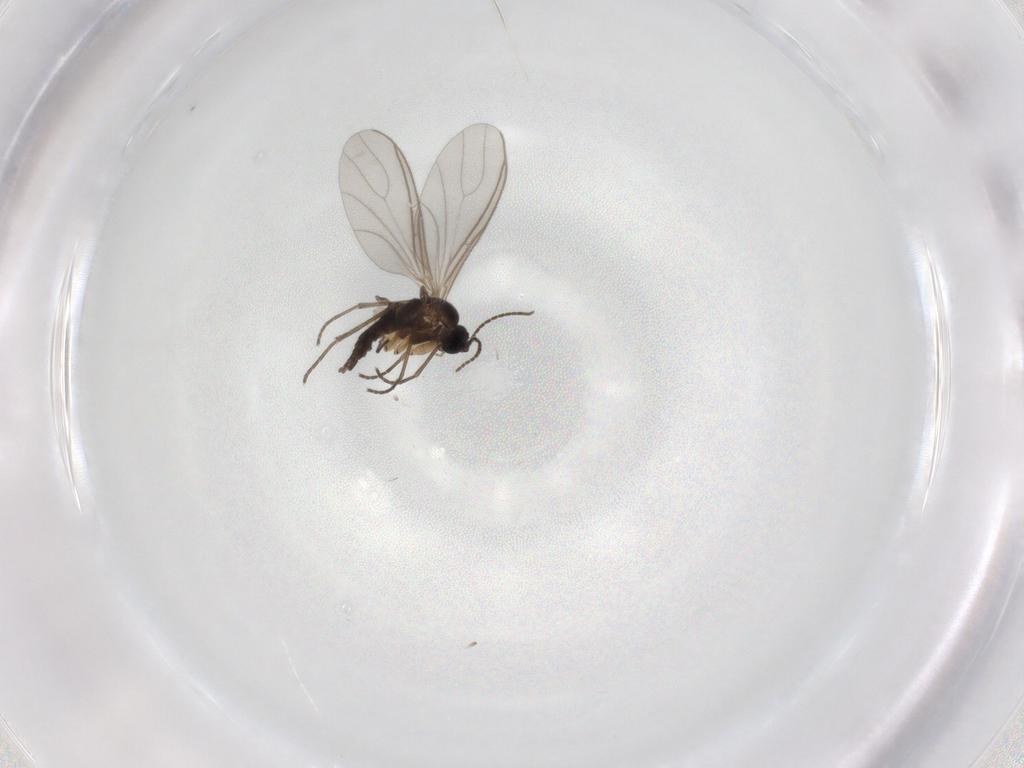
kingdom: Animalia
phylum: Arthropoda
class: Insecta
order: Diptera
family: Sciaridae
